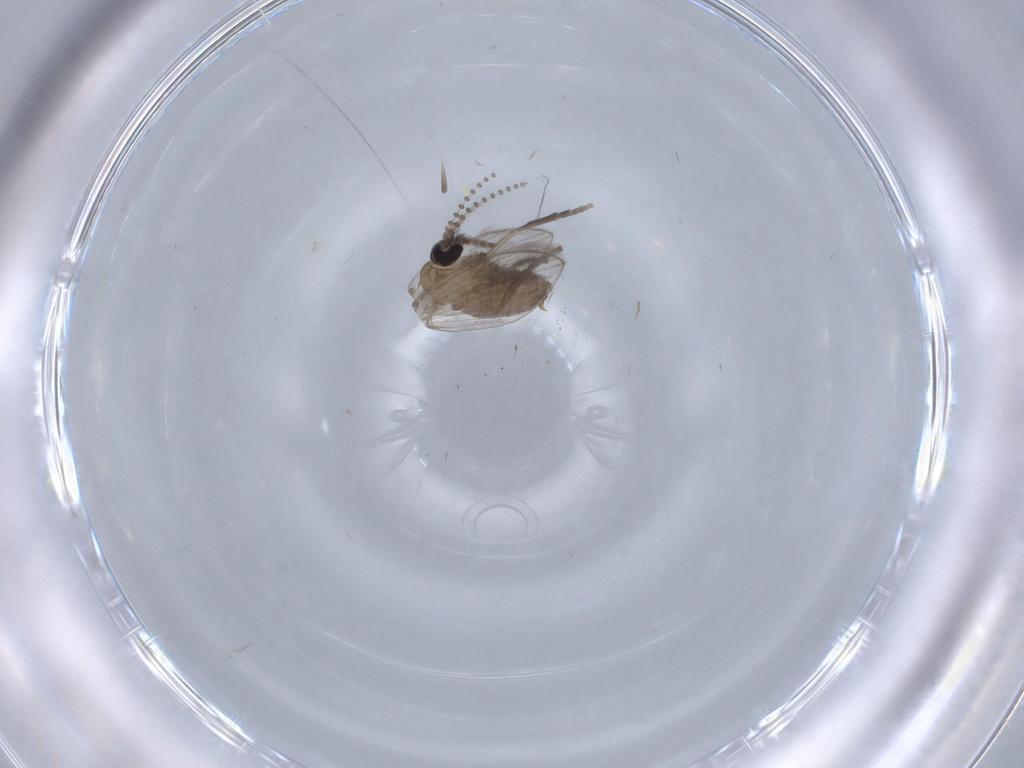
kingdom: Animalia
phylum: Arthropoda
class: Insecta
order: Diptera
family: Psychodidae
